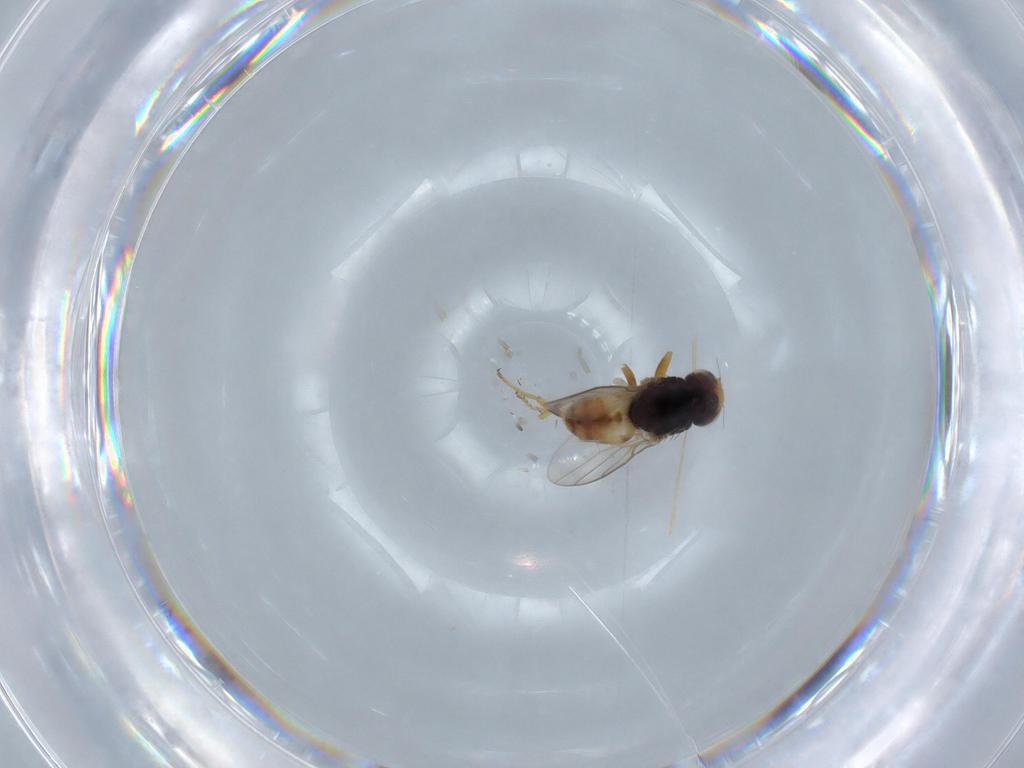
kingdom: Animalia
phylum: Arthropoda
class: Insecta
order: Diptera
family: Chloropidae
